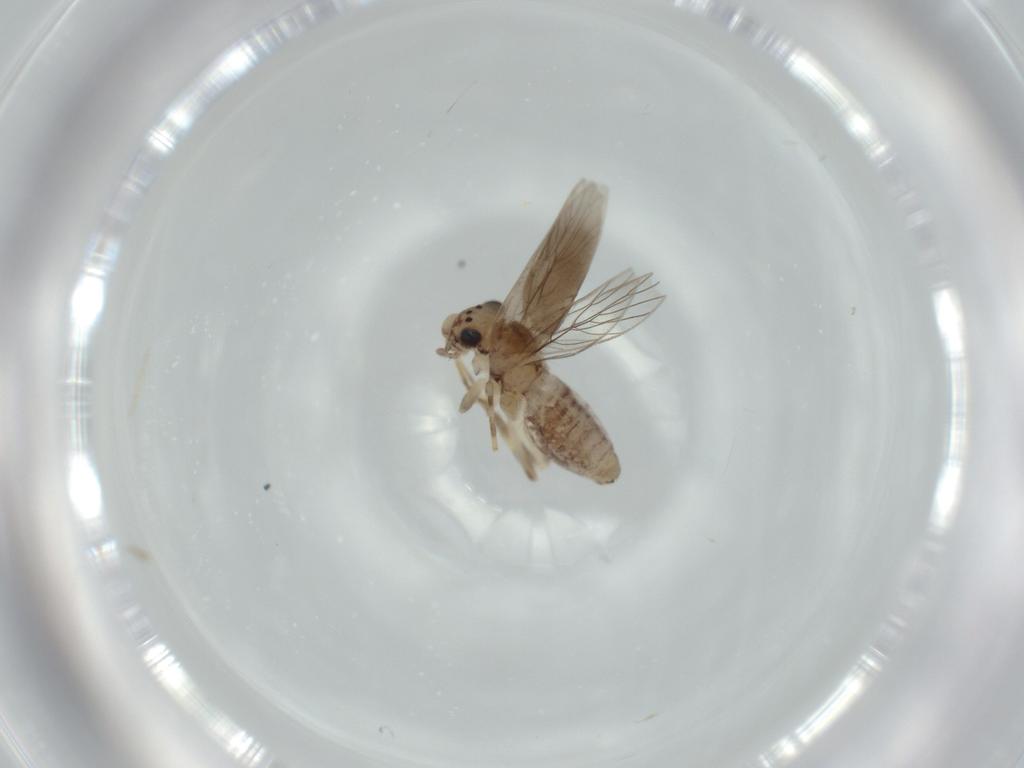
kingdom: Animalia
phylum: Arthropoda
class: Insecta
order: Psocodea
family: Lepidopsocidae
